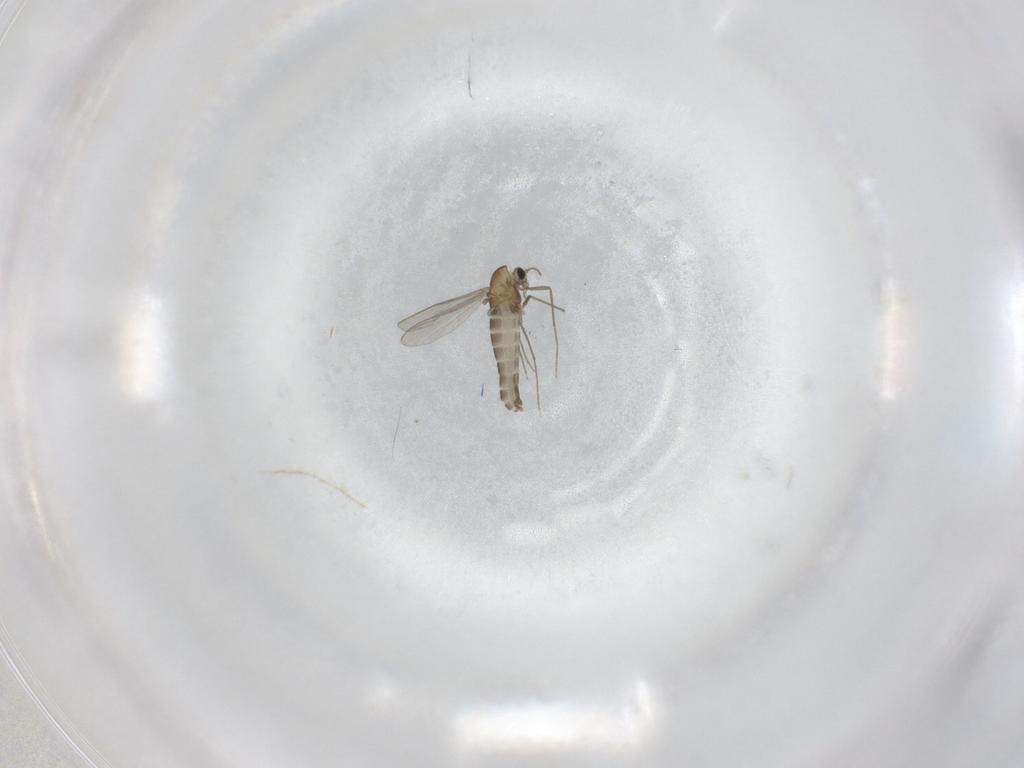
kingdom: Animalia
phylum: Arthropoda
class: Insecta
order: Diptera
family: Chironomidae
